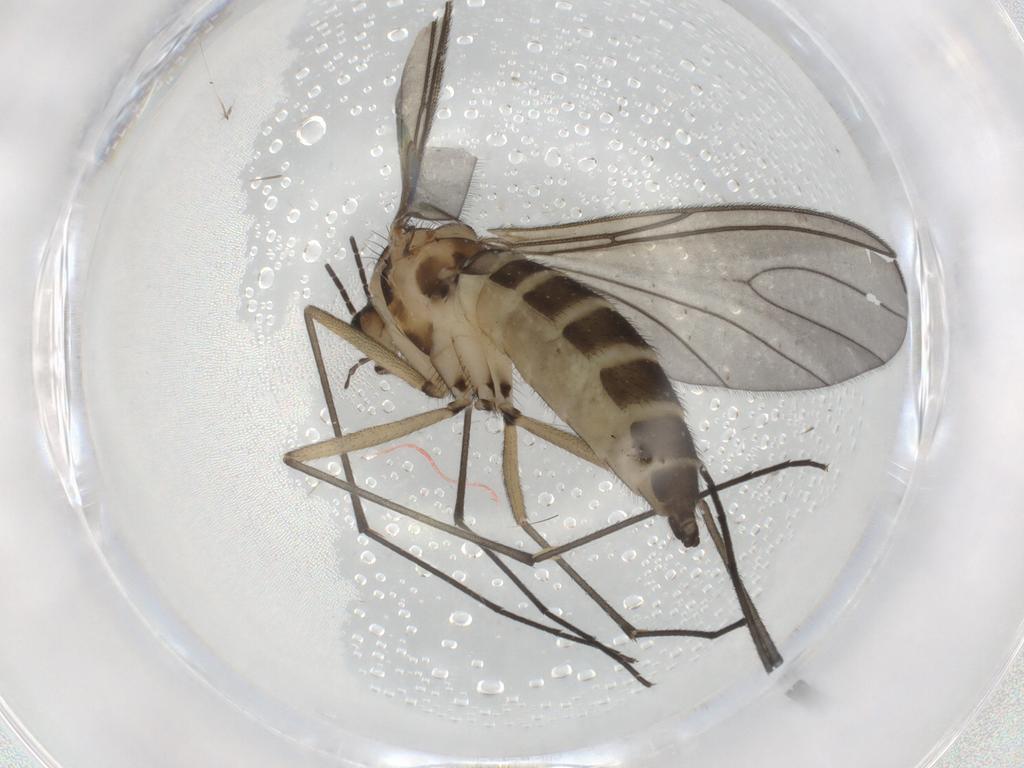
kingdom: Animalia
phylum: Arthropoda
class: Insecta
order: Diptera
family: Sciaridae
